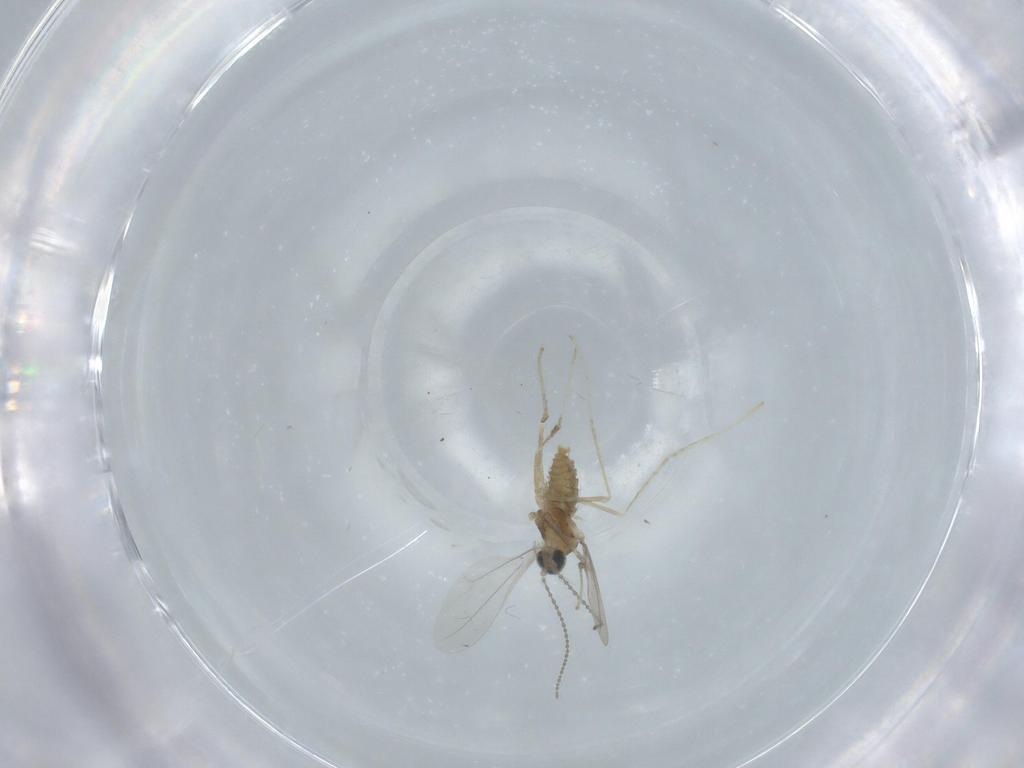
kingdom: Animalia
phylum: Arthropoda
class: Insecta
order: Diptera
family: Cecidomyiidae
